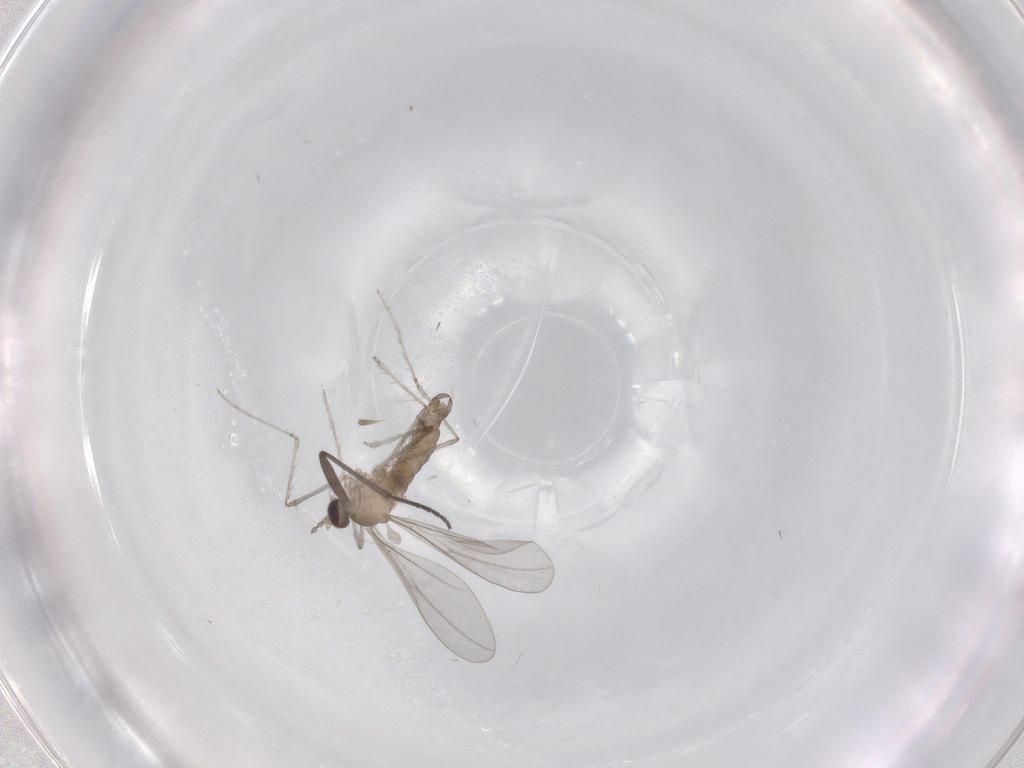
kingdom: Animalia
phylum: Arthropoda
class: Insecta
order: Diptera
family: Sciaridae
